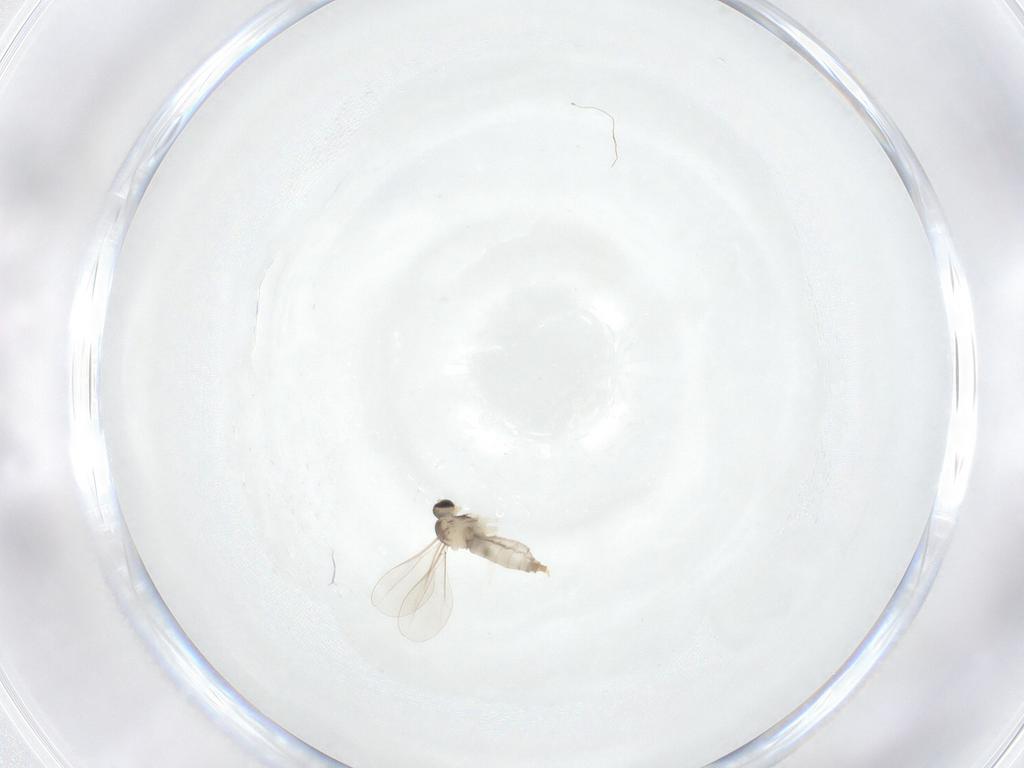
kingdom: Animalia
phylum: Arthropoda
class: Insecta
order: Diptera
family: Sciaridae
